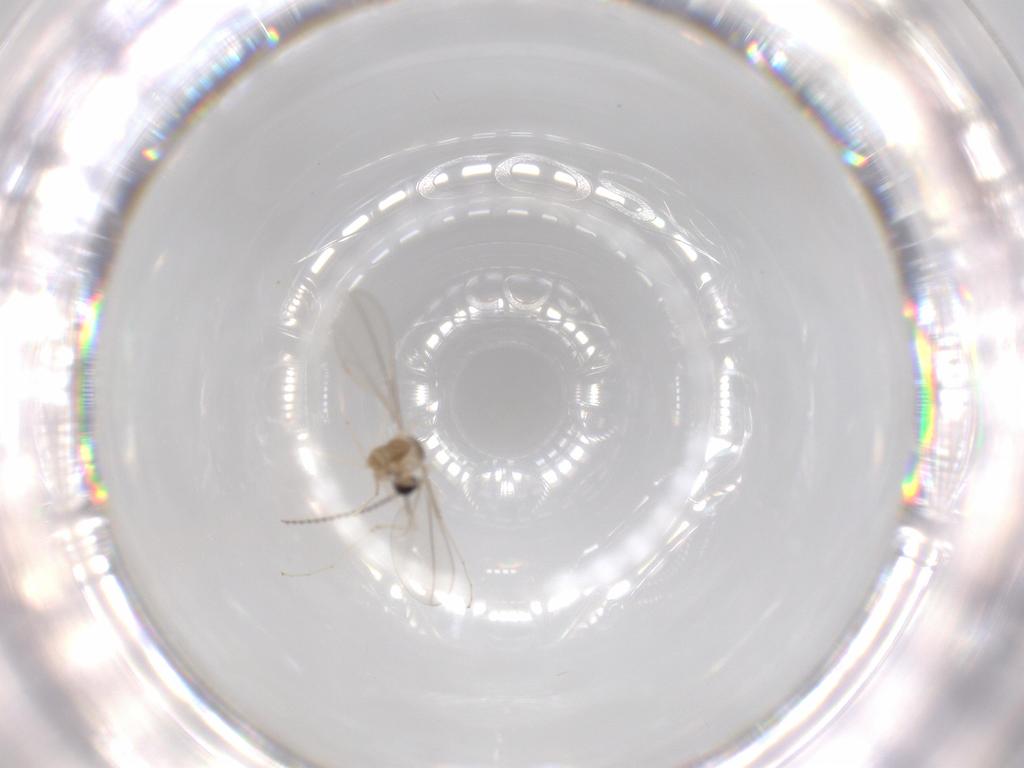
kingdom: Animalia
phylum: Arthropoda
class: Insecta
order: Diptera
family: Cecidomyiidae
